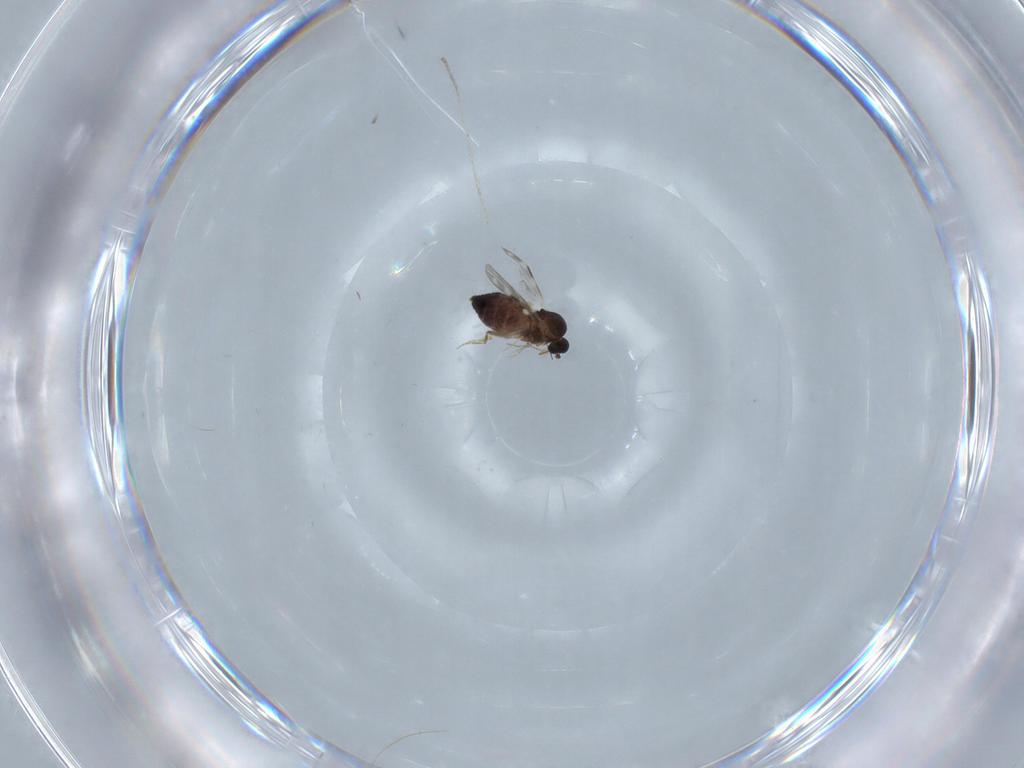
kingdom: Animalia
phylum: Arthropoda
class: Insecta
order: Diptera
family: Ceratopogonidae
